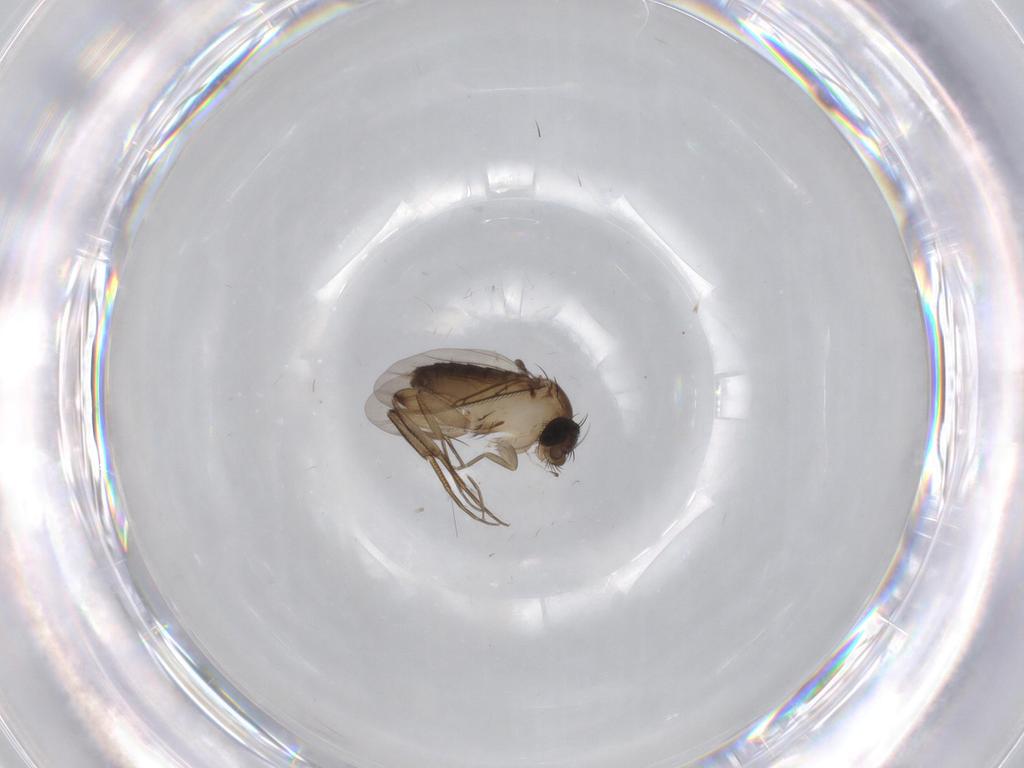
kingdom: Animalia
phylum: Arthropoda
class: Insecta
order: Diptera
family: Phoridae
